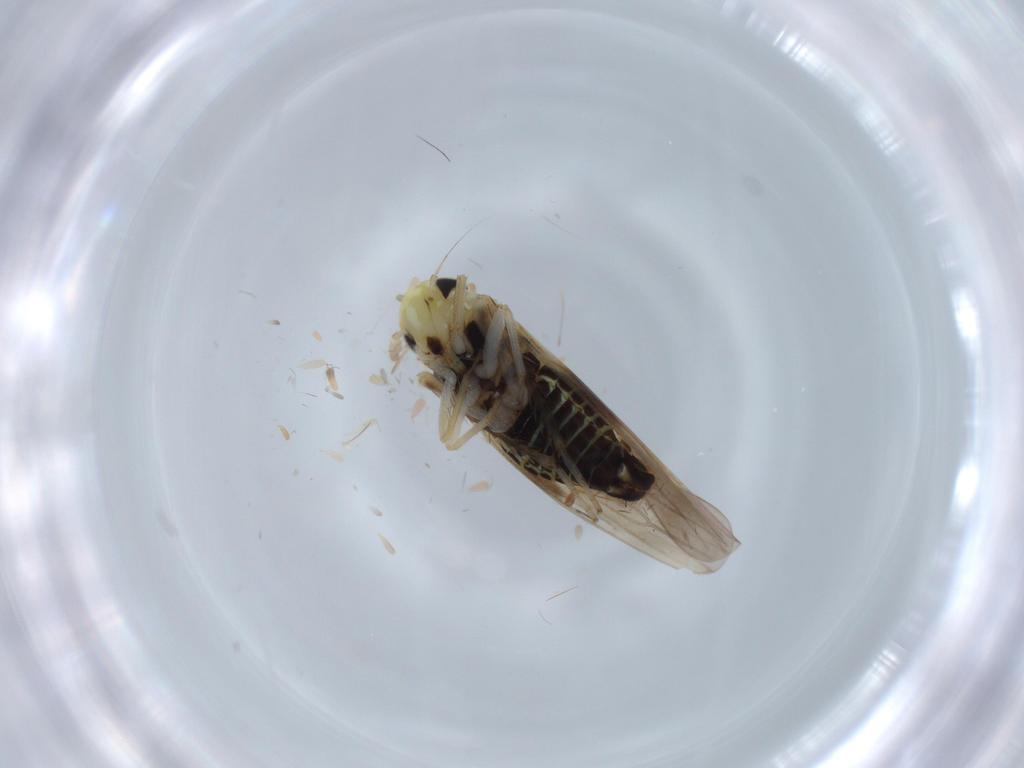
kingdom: Animalia
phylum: Arthropoda
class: Insecta
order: Hemiptera
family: Cicadellidae
